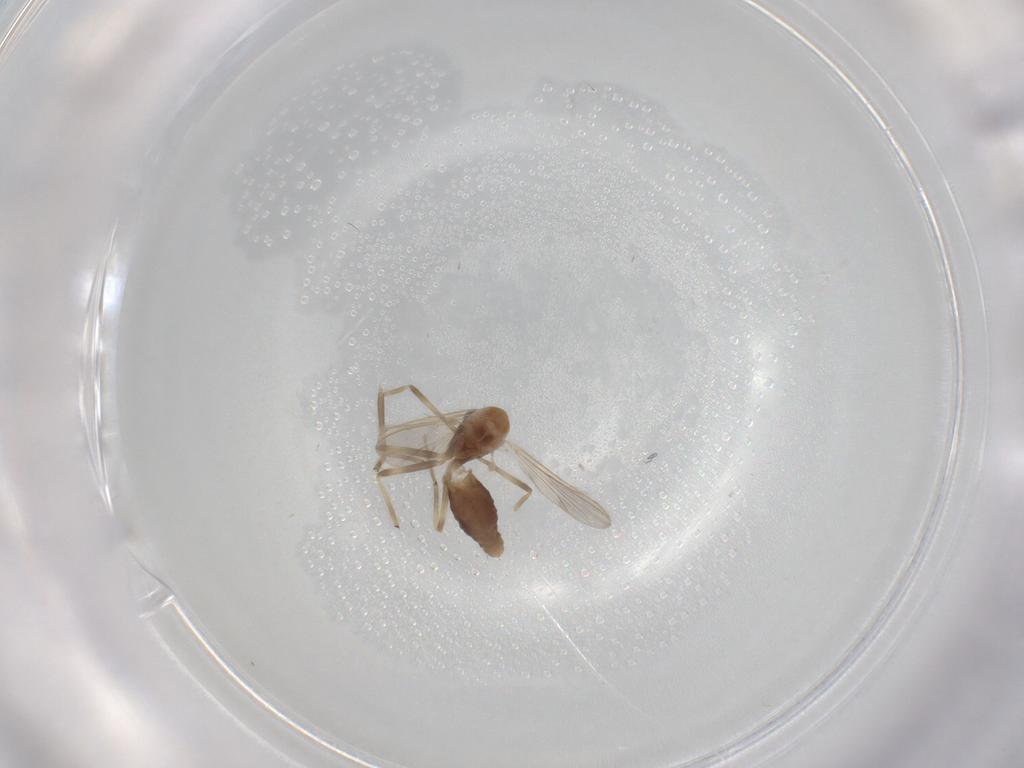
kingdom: Animalia
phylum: Arthropoda
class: Insecta
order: Diptera
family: Chironomidae
